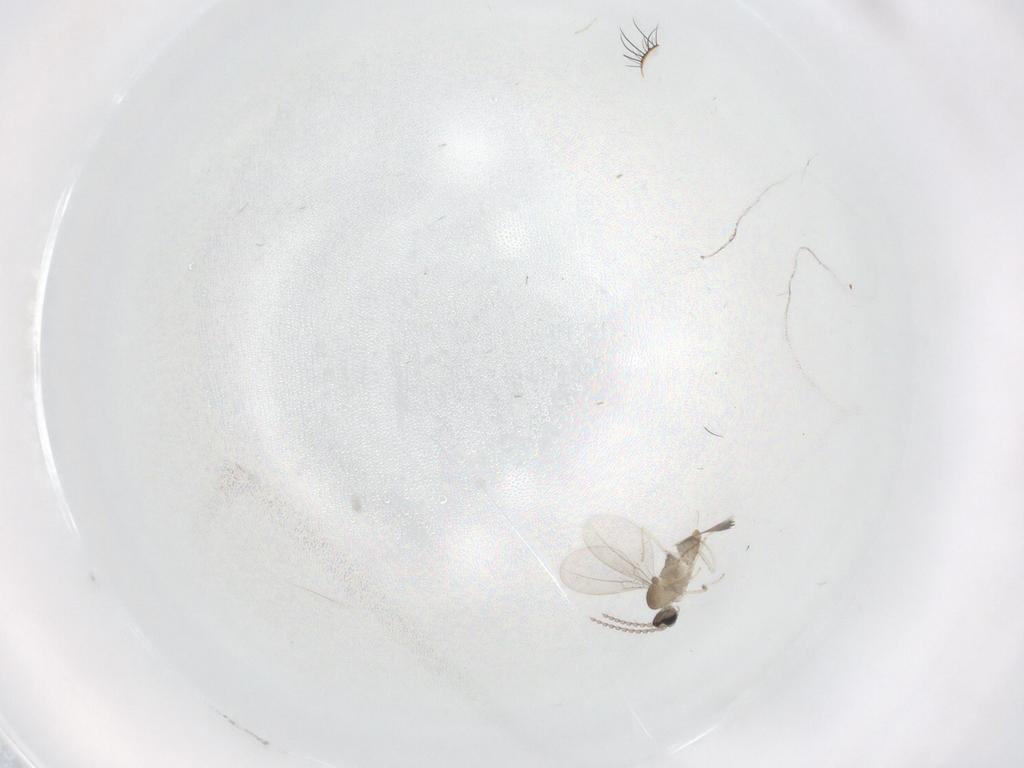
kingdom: Animalia
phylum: Arthropoda
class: Insecta
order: Diptera
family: Cecidomyiidae
